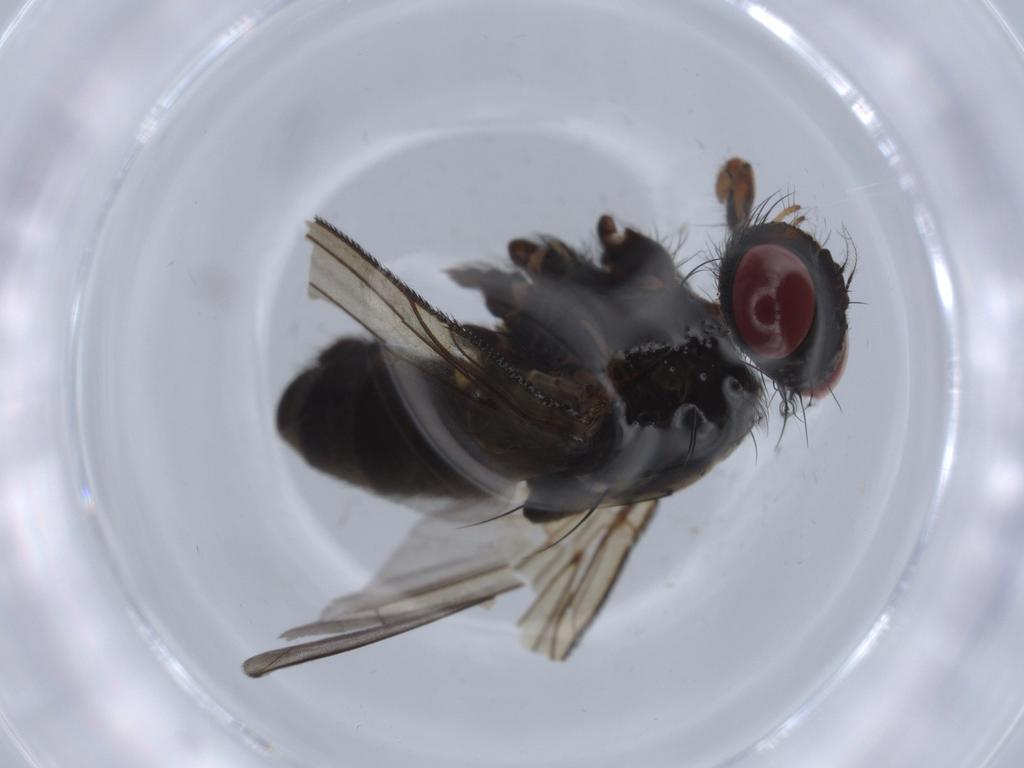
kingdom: Animalia
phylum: Arthropoda
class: Insecta
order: Diptera
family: Calliphoridae
